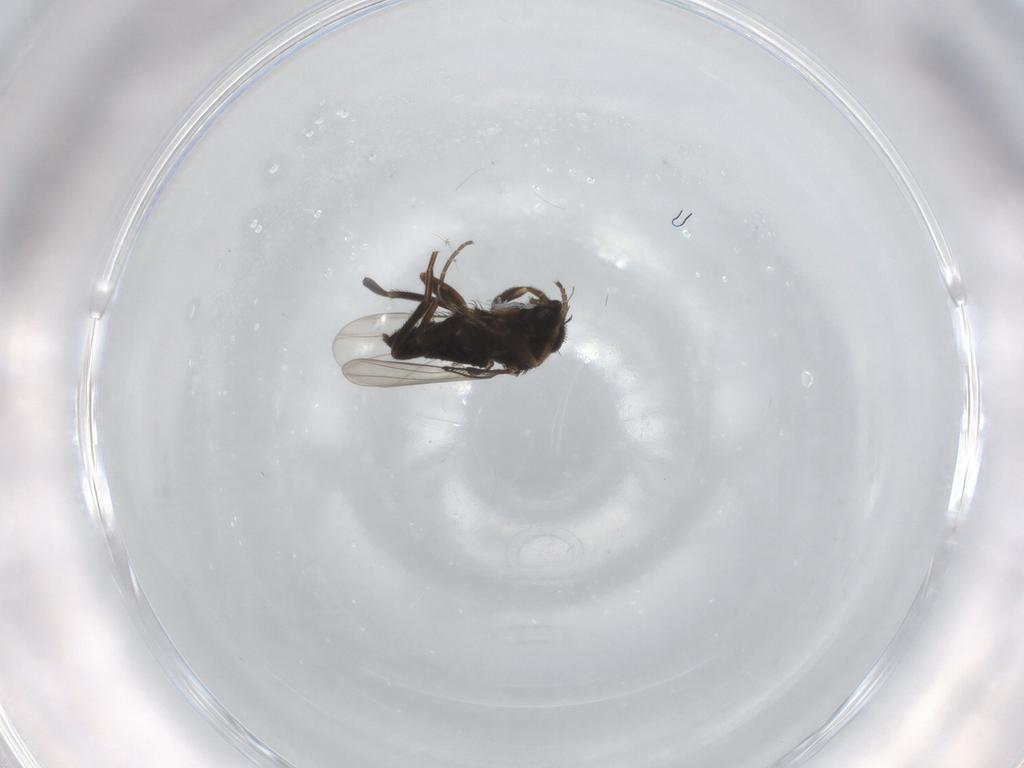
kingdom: Animalia
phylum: Arthropoda
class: Insecta
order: Diptera
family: Phoridae
